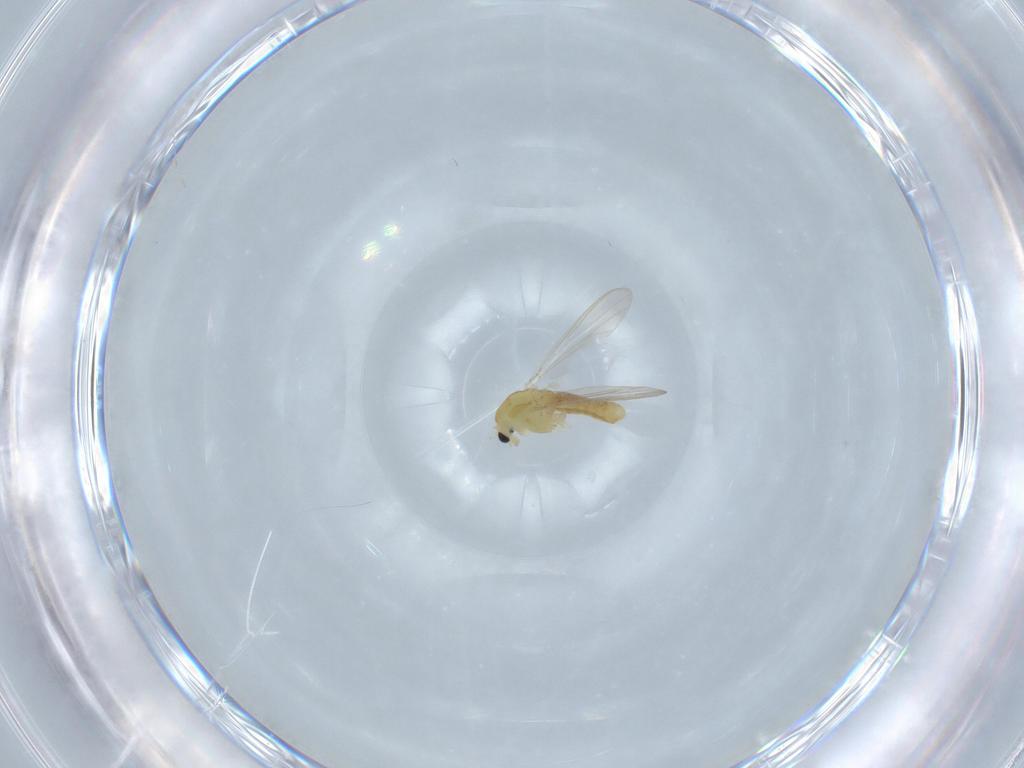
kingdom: Animalia
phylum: Arthropoda
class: Insecta
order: Diptera
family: Chironomidae
